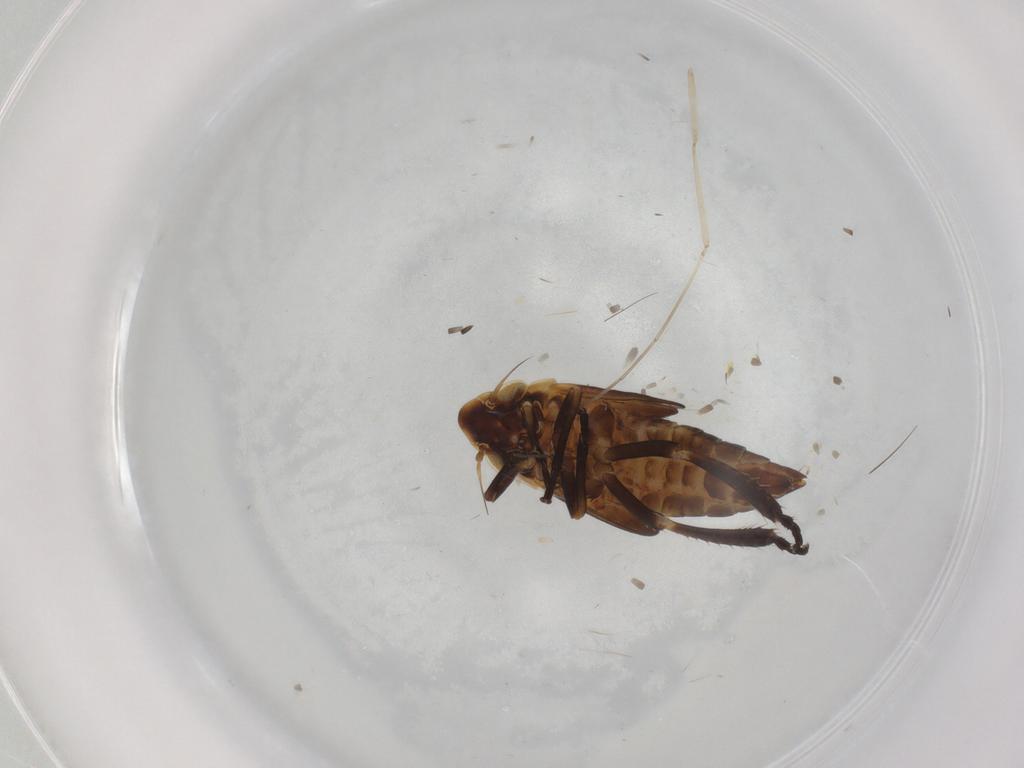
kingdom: Animalia
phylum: Arthropoda
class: Insecta
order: Hemiptera
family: Cicadellidae
